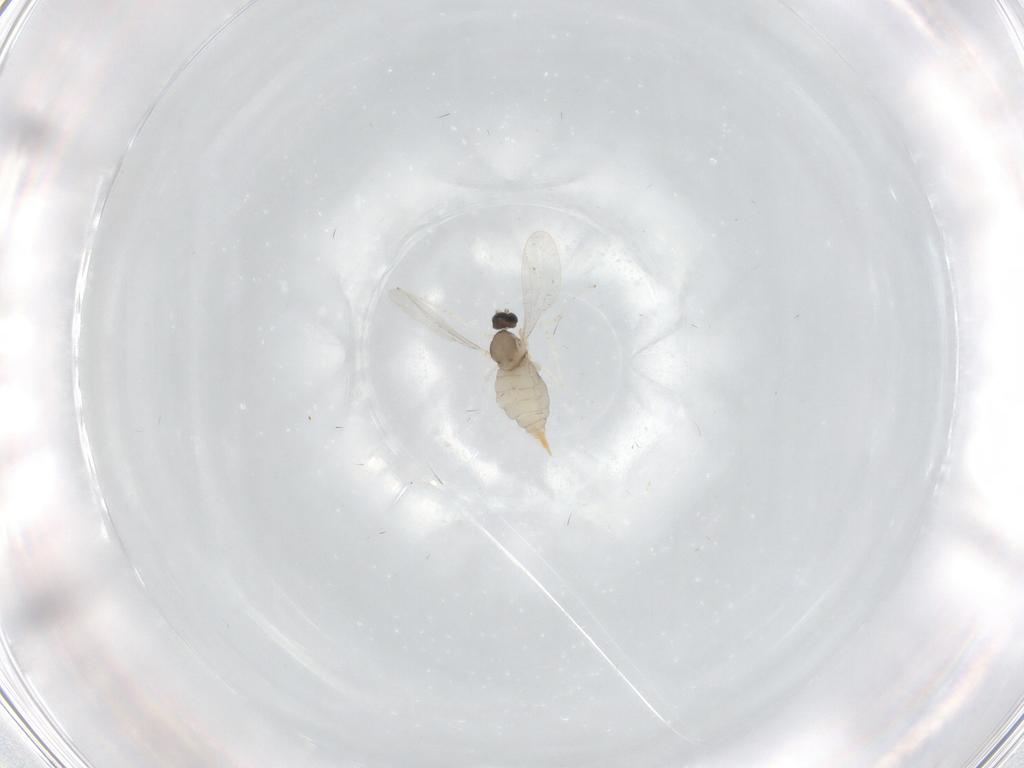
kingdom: Animalia
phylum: Arthropoda
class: Insecta
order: Diptera
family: Cecidomyiidae
